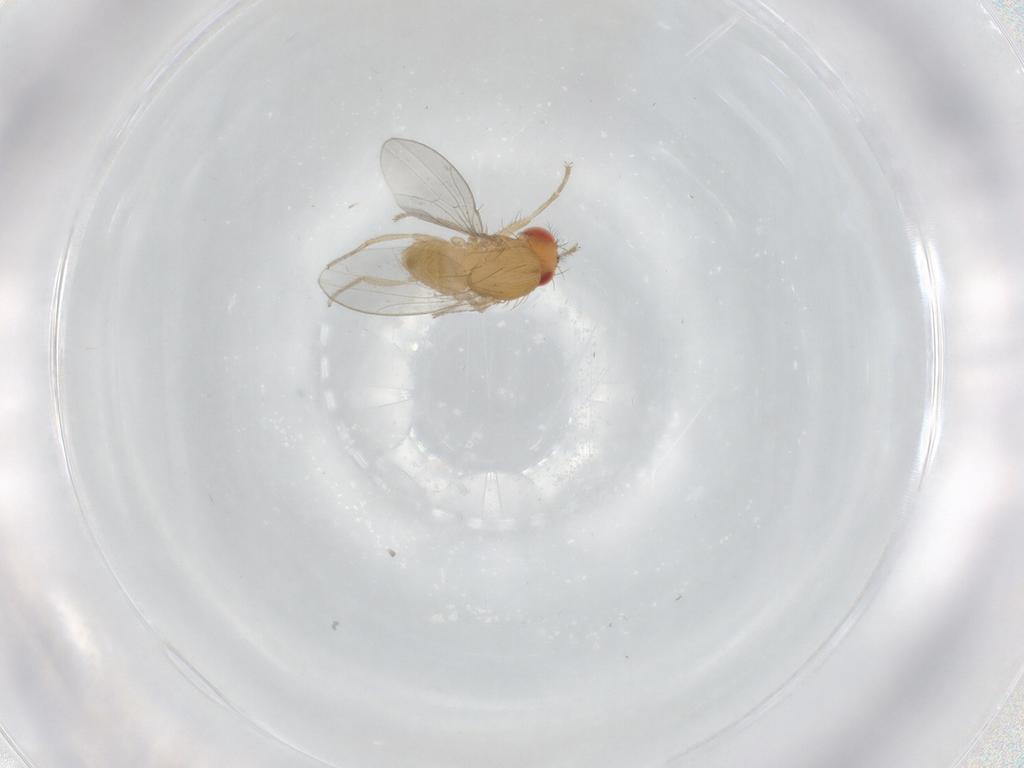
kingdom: Animalia
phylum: Arthropoda
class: Insecta
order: Diptera
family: Drosophilidae
